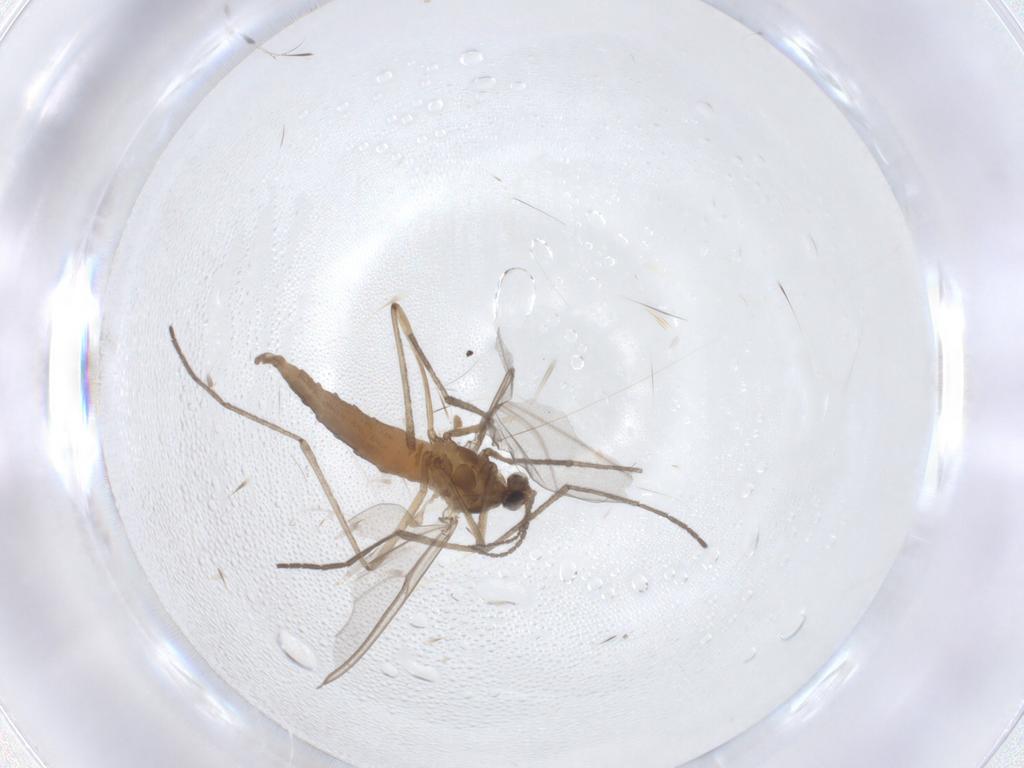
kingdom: Animalia
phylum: Arthropoda
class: Insecta
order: Diptera
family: Cecidomyiidae
